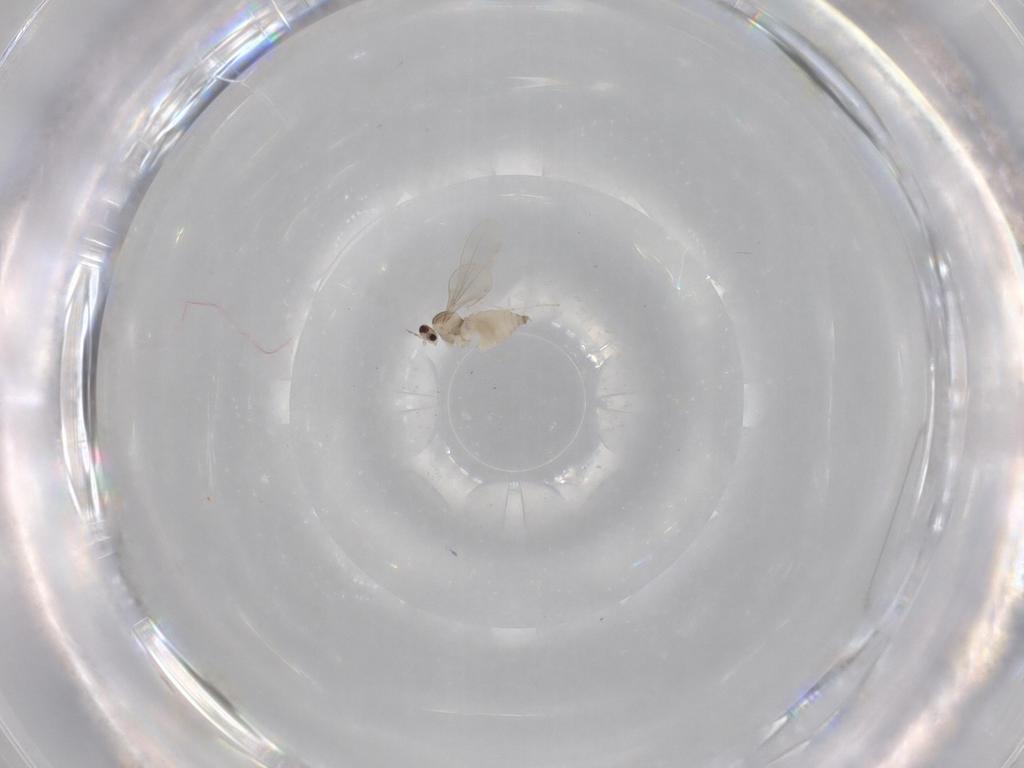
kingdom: Animalia
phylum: Arthropoda
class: Insecta
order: Diptera
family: Cecidomyiidae
